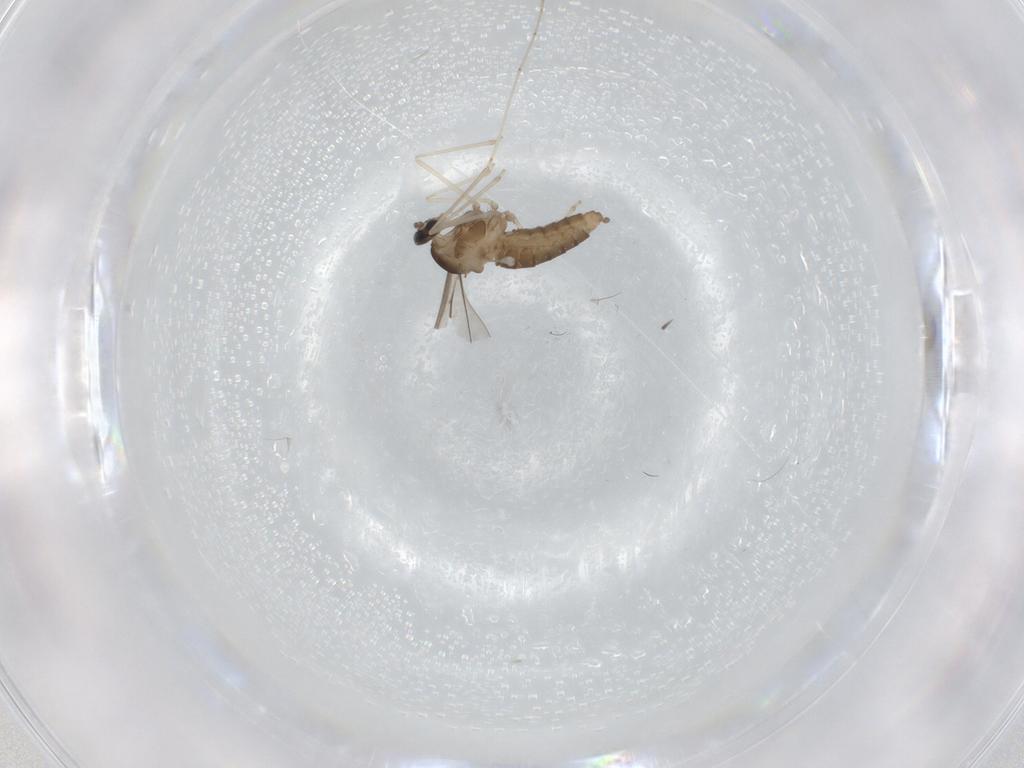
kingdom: Animalia
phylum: Arthropoda
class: Insecta
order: Diptera
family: Cecidomyiidae
